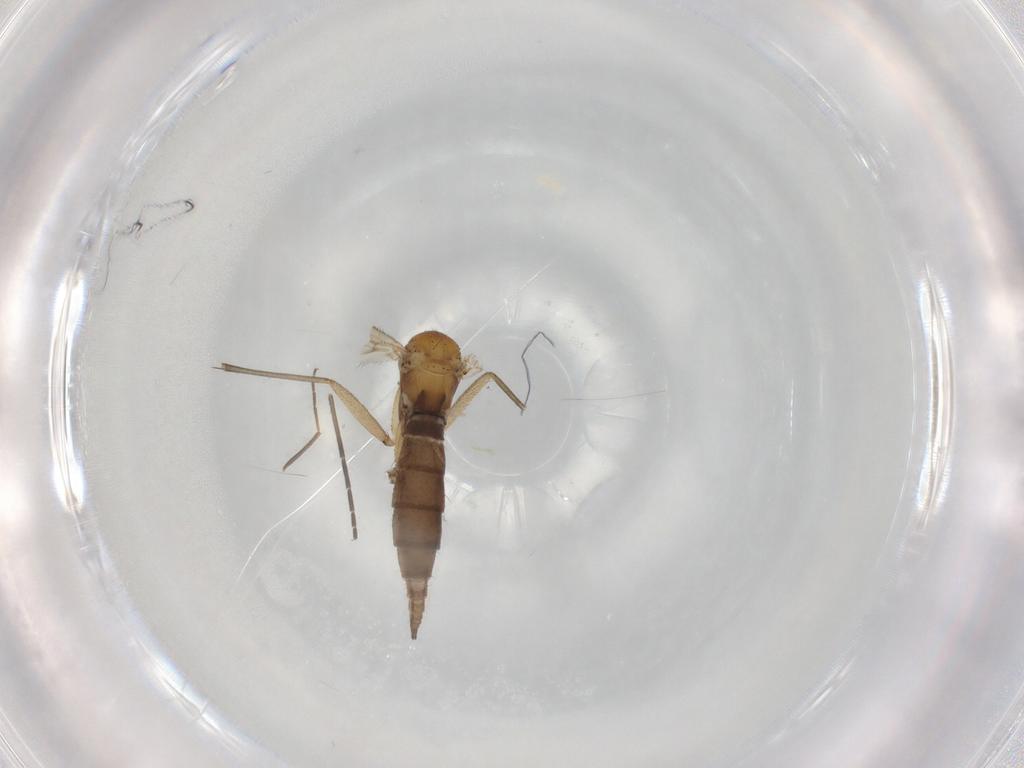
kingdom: Animalia
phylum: Arthropoda
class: Insecta
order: Diptera
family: Sciaridae
